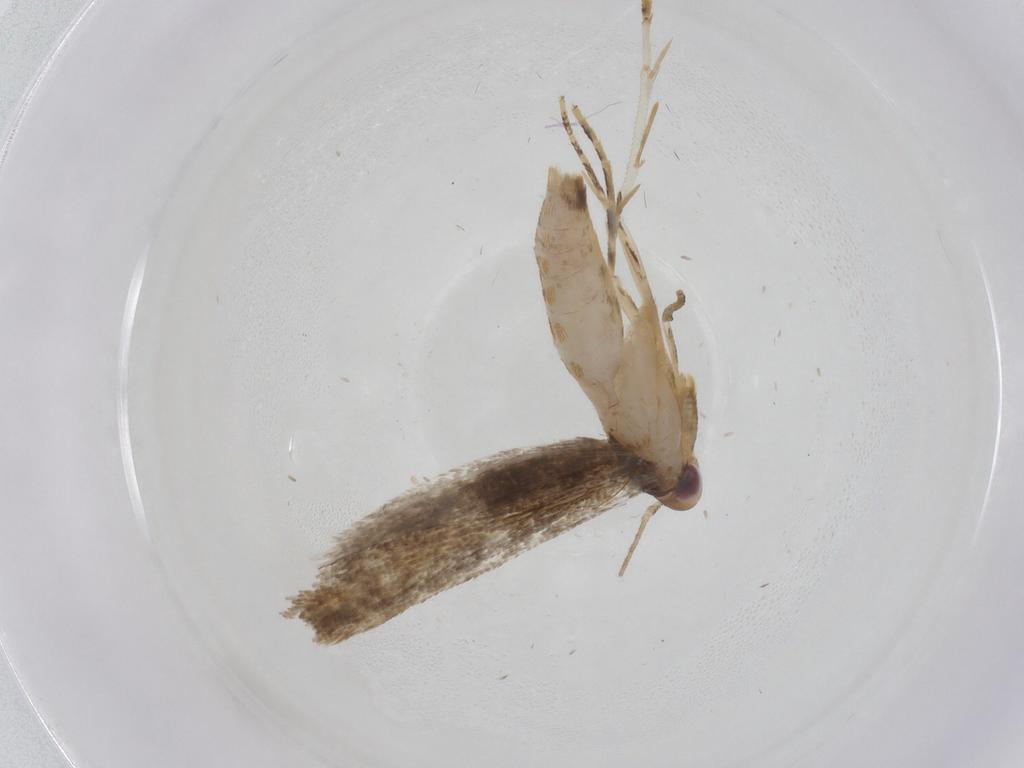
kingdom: Animalia
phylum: Arthropoda
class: Insecta
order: Lepidoptera
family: Momphidae
